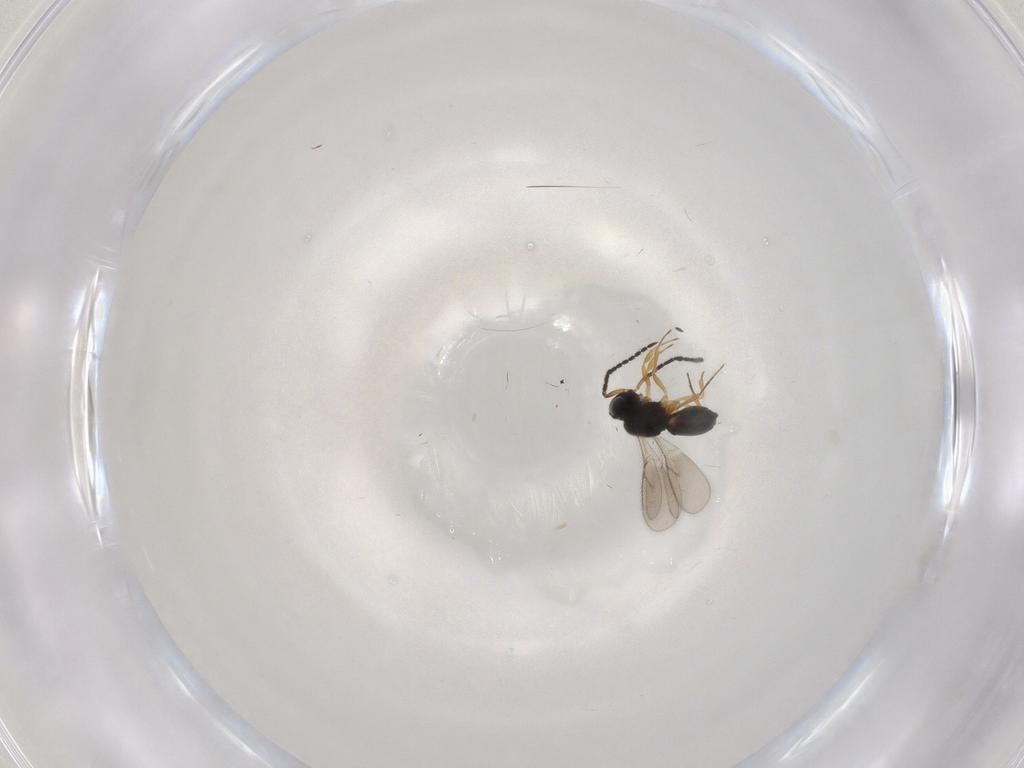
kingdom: Animalia
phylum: Arthropoda
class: Insecta
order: Hymenoptera
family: Scelionidae
